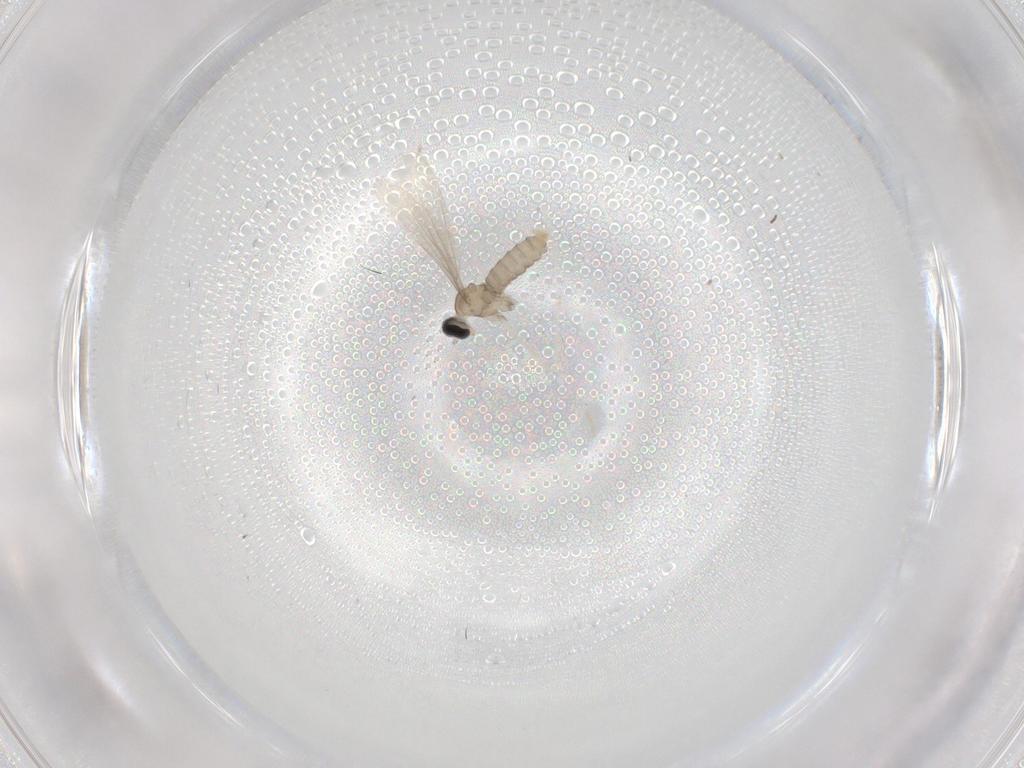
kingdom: Animalia
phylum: Arthropoda
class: Insecta
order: Diptera
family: Cecidomyiidae
